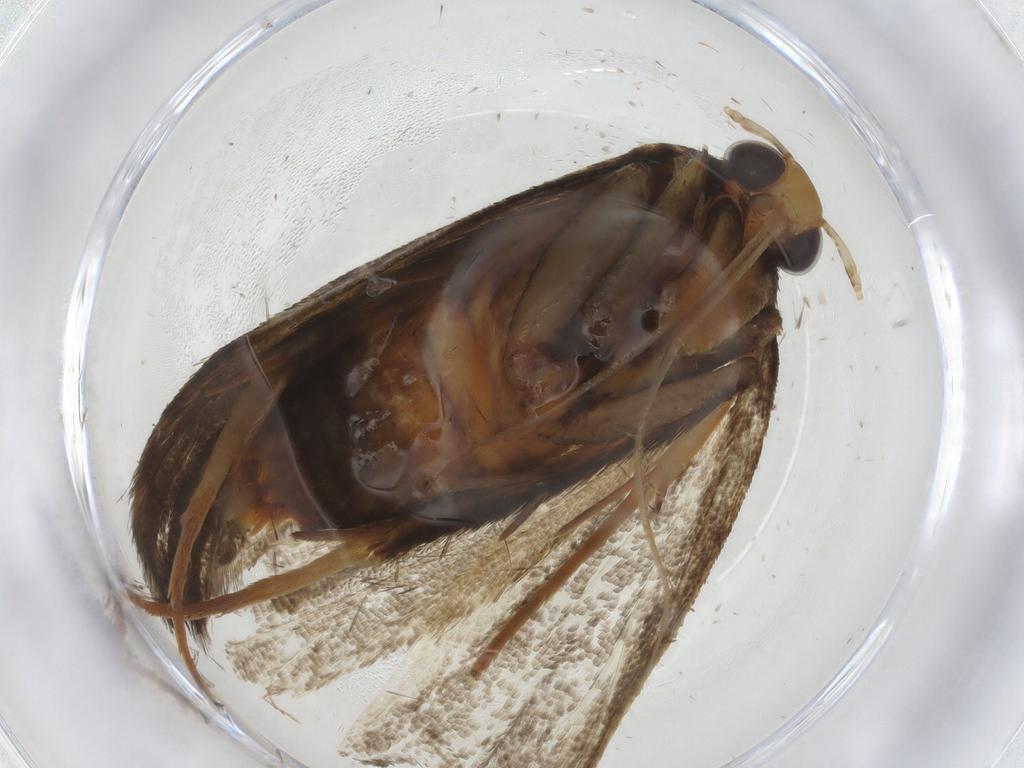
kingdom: Animalia
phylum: Arthropoda
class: Insecta
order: Lepidoptera
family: Lecithoceridae
